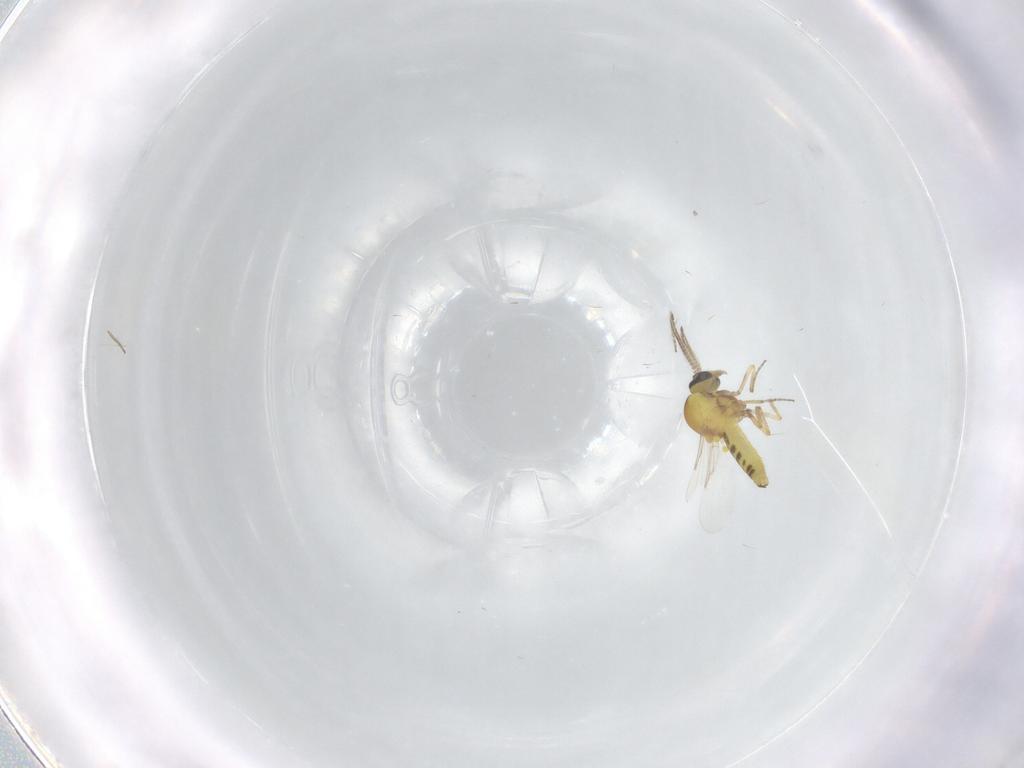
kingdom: Animalia
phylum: Arthropoda
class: Insecta
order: Diptera
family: Ceratopogonidae
